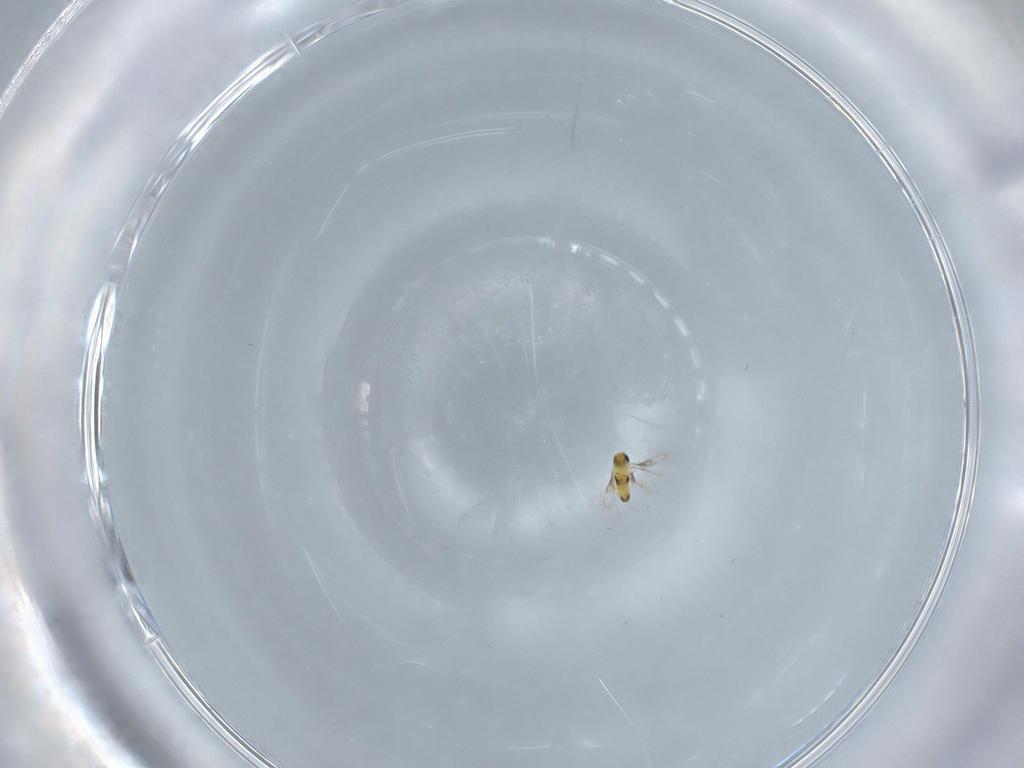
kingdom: Animalia
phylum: Arthropoda
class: Insecta
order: Hymenoptera
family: Trichogrammatidae
